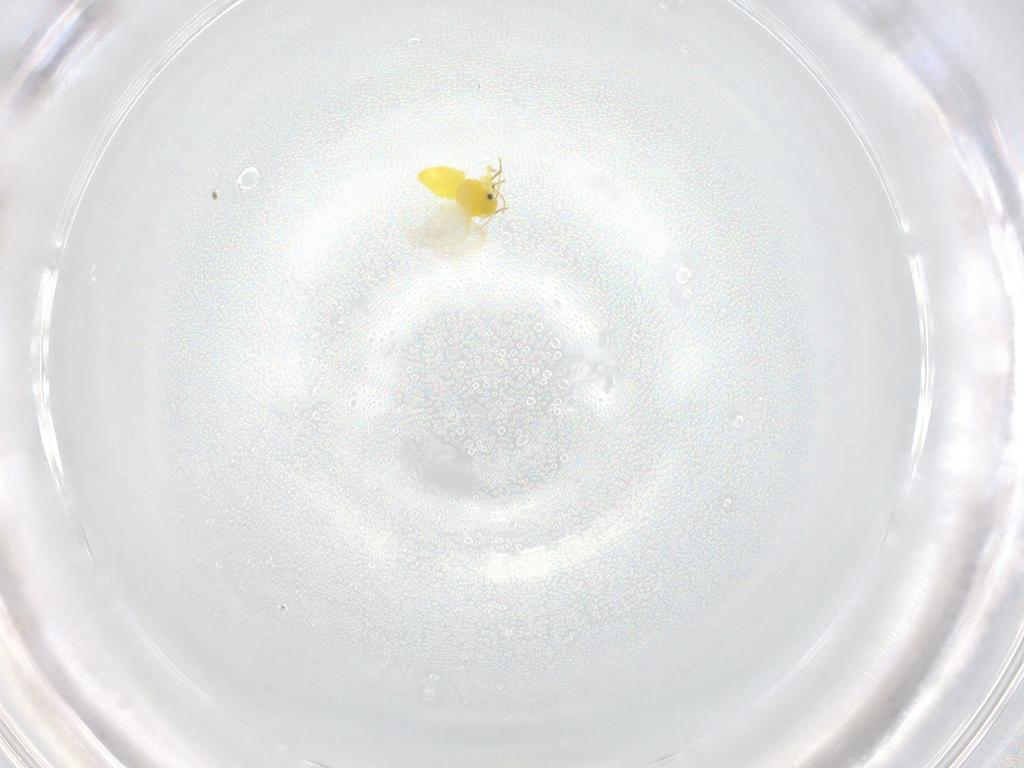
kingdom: Animalia
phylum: Arthropoda
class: Insecta
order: Hemiptera
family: Aleyrodidae
